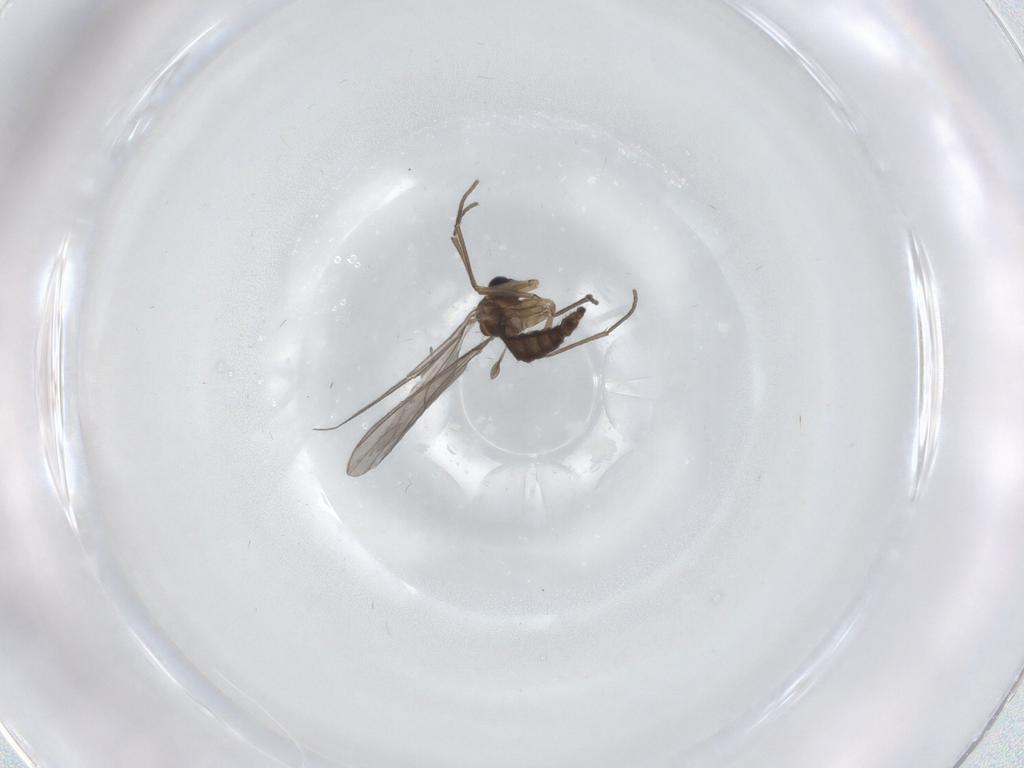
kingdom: Animalia
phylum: Arthropoda
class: Insecta
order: Diptera
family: Sciaridae
